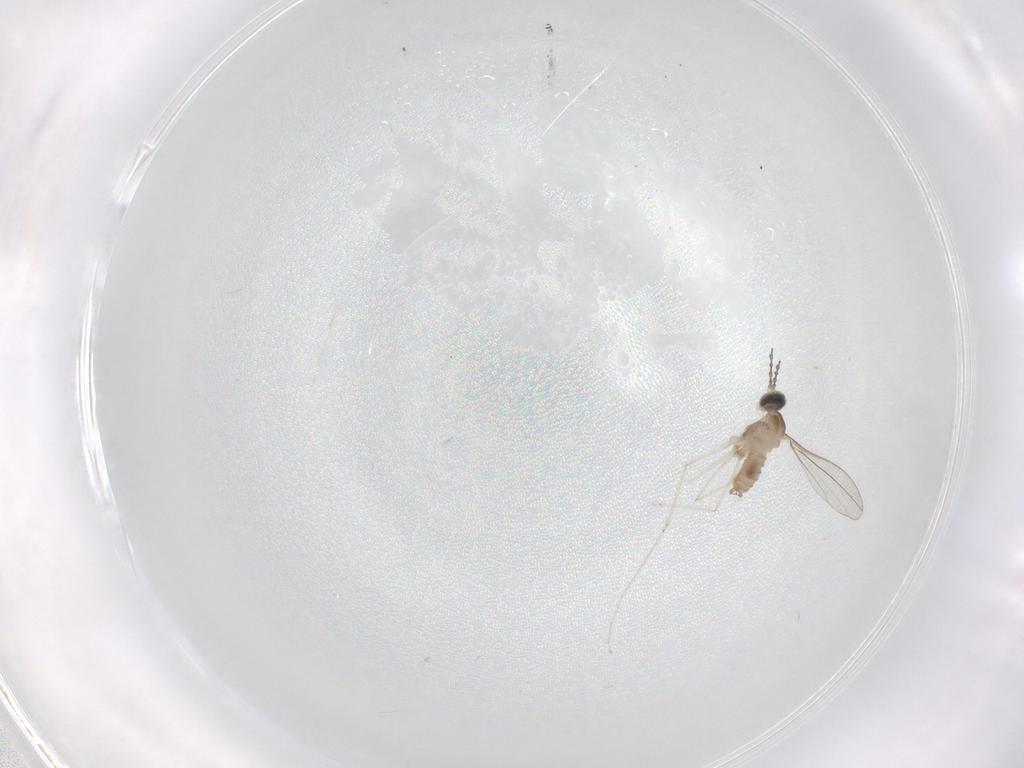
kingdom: Animalia
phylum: Arthropoda
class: Insecta
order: Diptera
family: Cecidomyiidae
